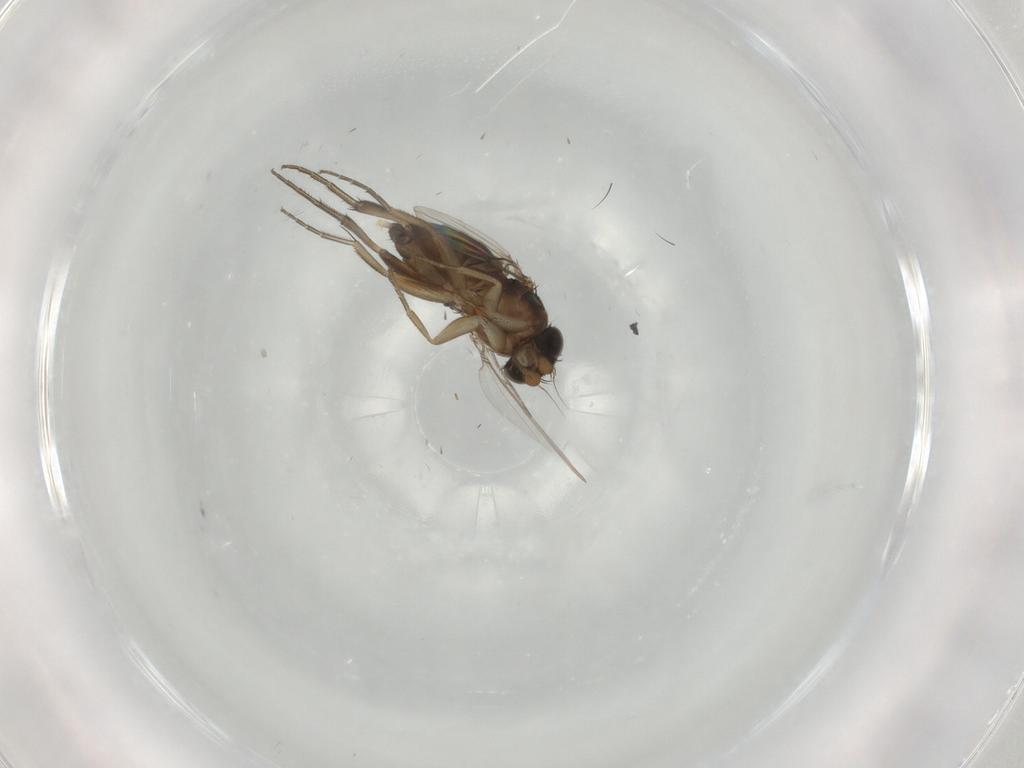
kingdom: Animalia
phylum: Arthropoda
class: Insecta
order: Diptera
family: Phoridae
